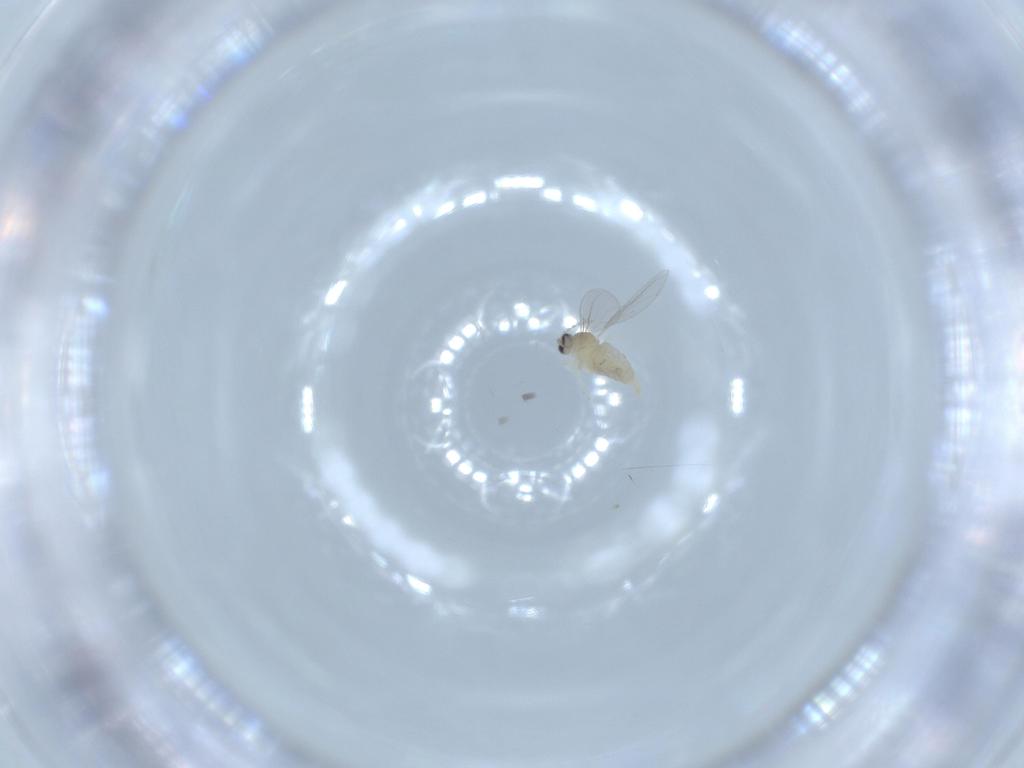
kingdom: Animalia
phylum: Arthropoda
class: Insecta
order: Diptera
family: Cecidomyiidae
